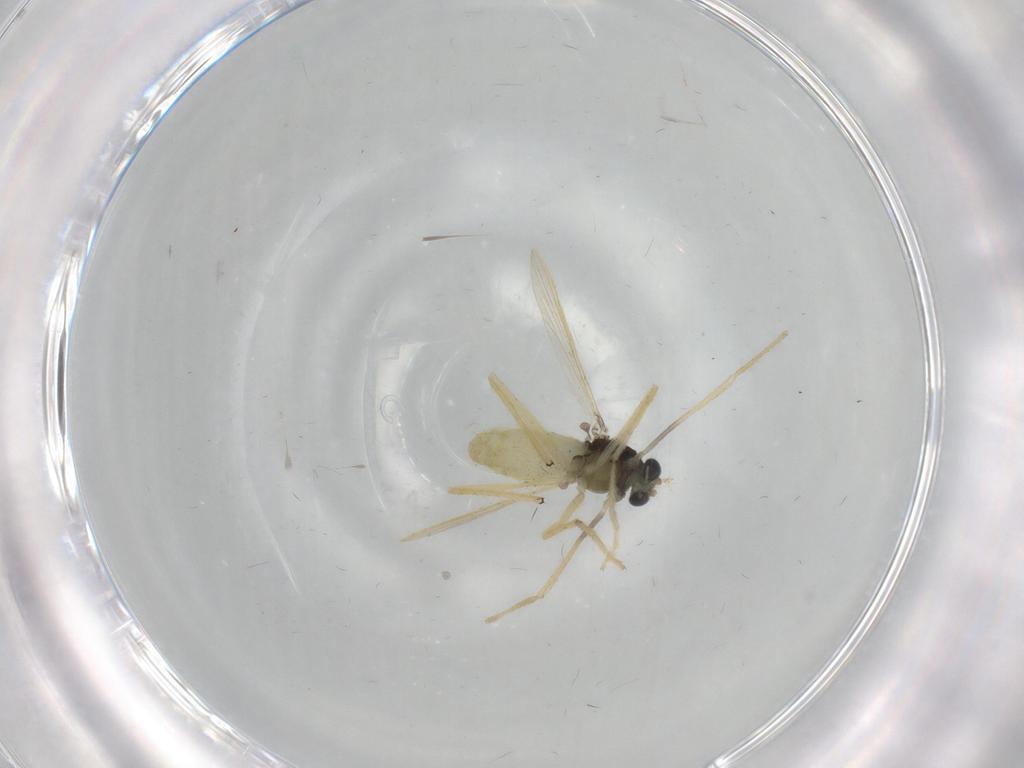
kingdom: Animalia
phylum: Arthropoda
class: Insecta
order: Diptera
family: Chironomidae
